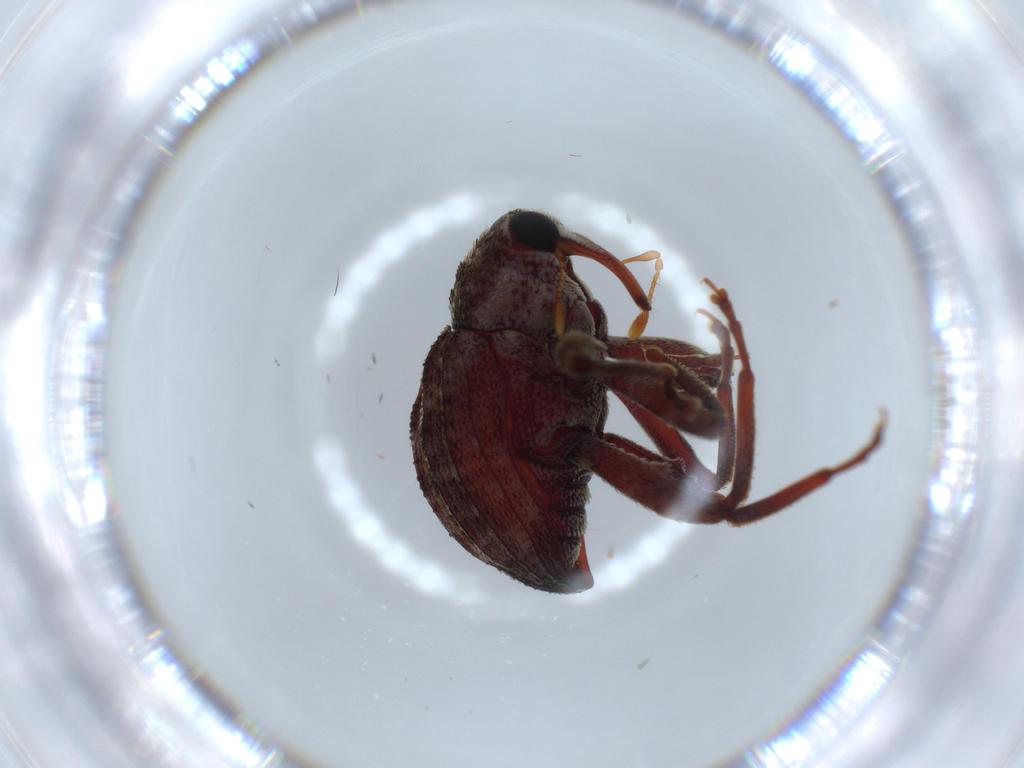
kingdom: Animalia
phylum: Arthropoda
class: Insecta
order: Coleoptera
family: Curculionidae
